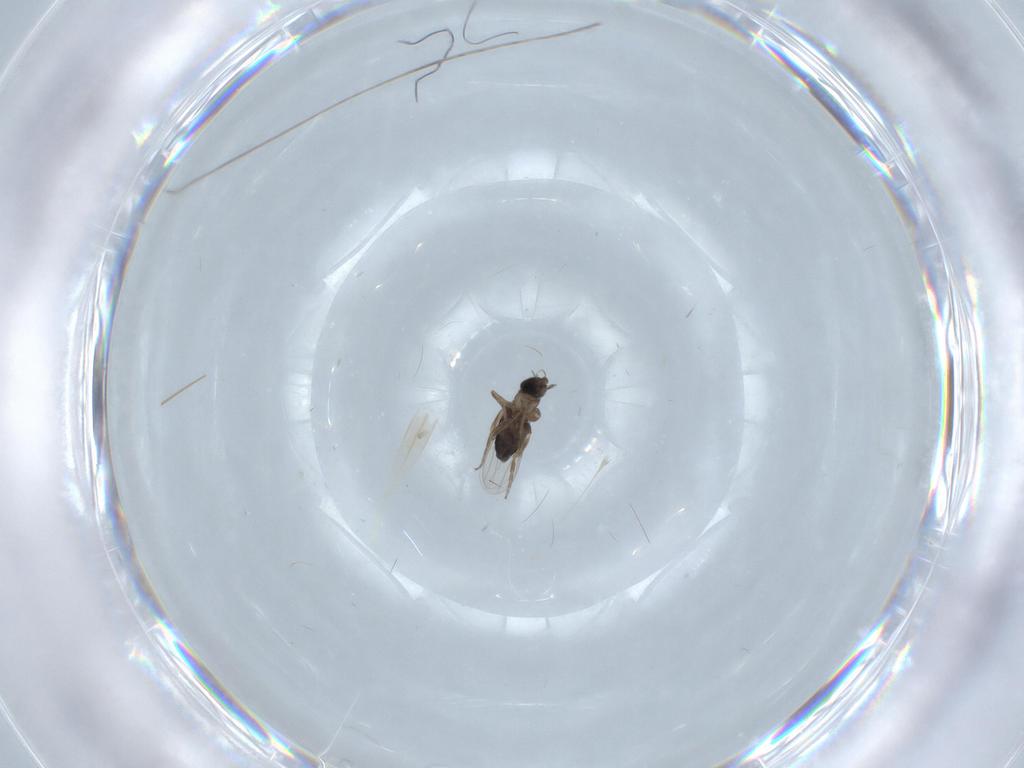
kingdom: Animalia
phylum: Arthropoda
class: Insecta
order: Diptera
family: Phoridae
